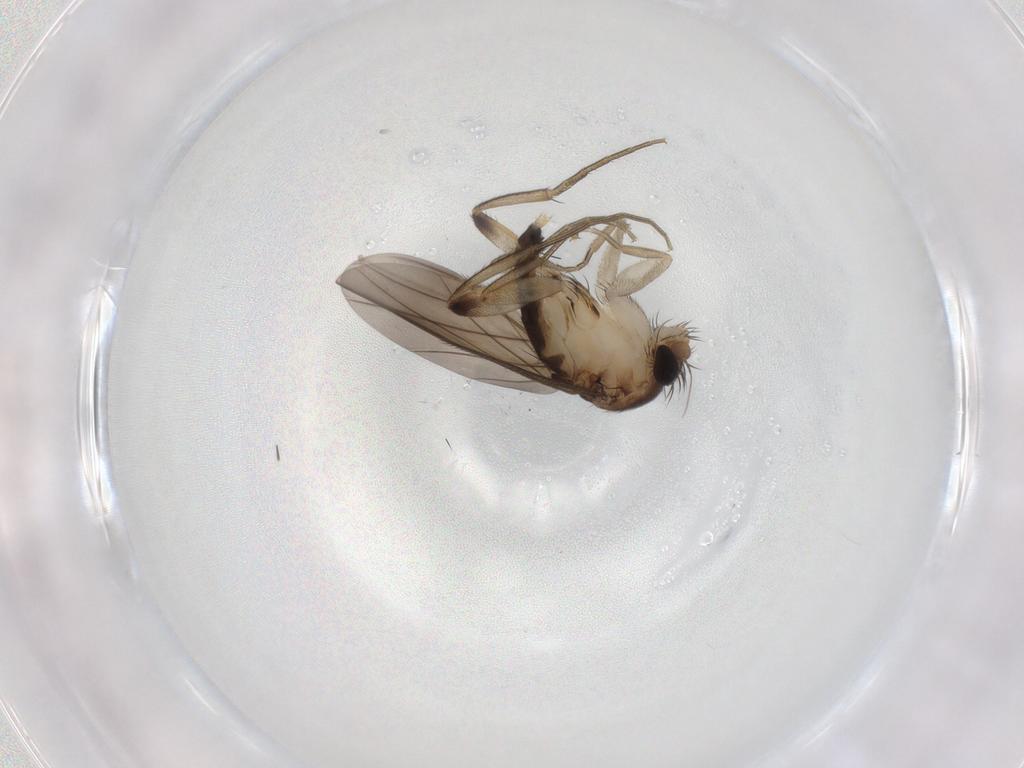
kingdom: Animalia
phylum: Arthropoda
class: Insecta
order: Diptera
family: Phoridae
